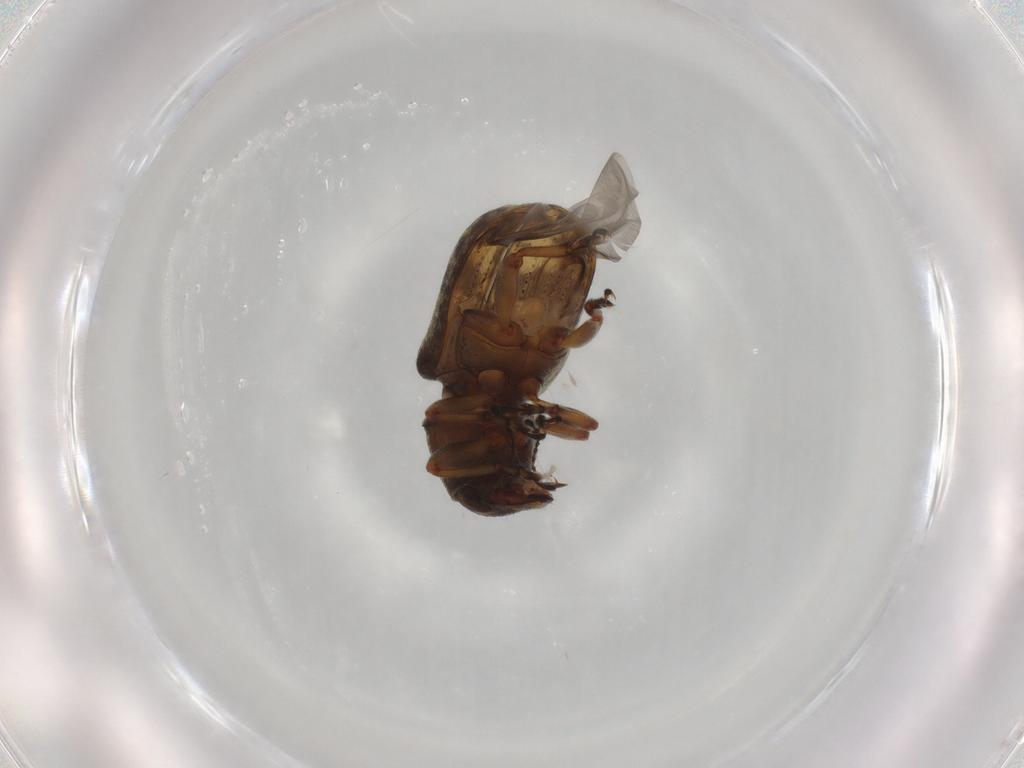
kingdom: Animalia
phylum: Arthropoda
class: Insecta
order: Coleoptera
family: Anthribidae
